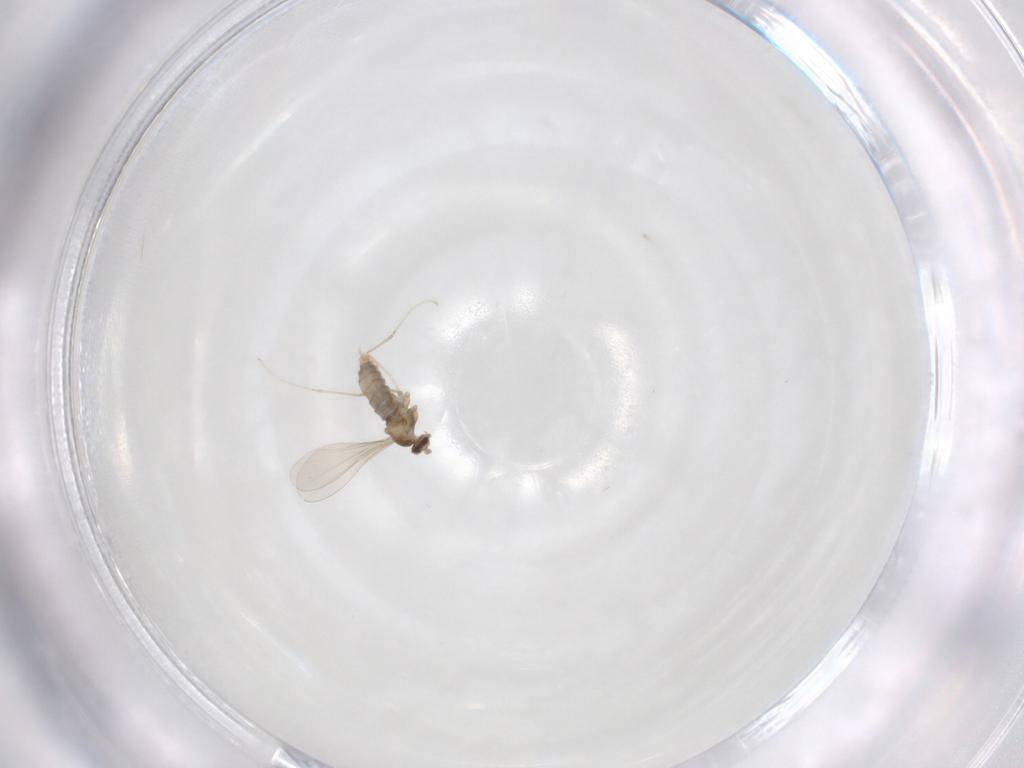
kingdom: Animalia
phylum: Arthropoda
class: Insecta
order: Diptera
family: Cecidomyiidae
